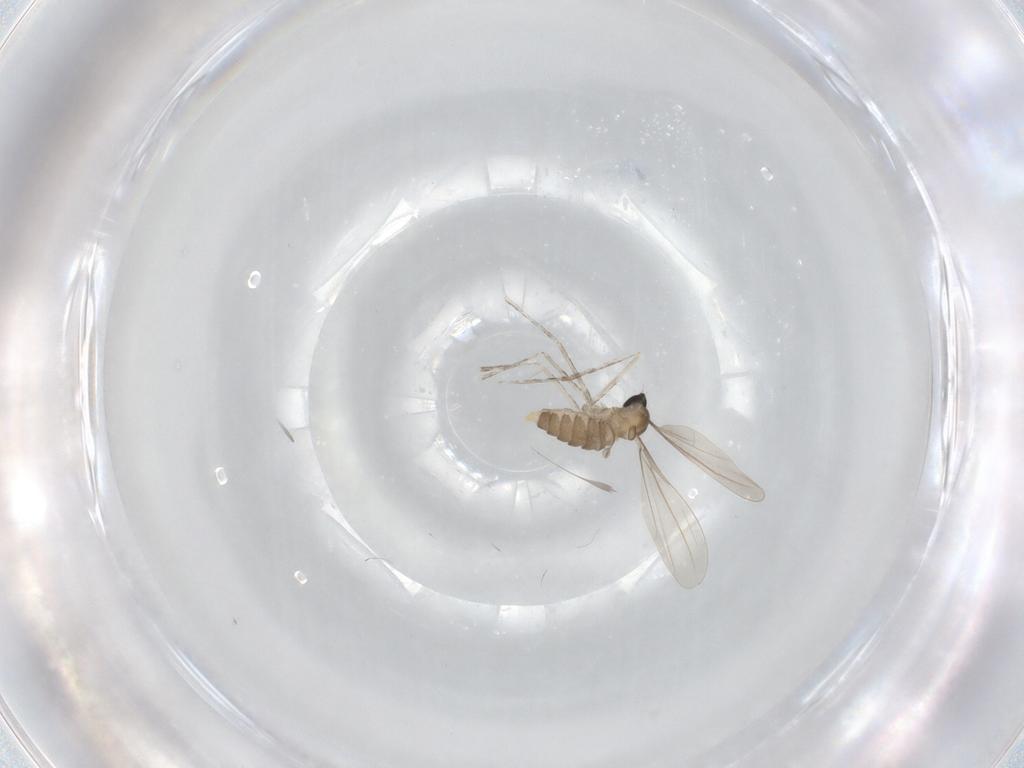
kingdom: Animalia
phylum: Arthropoda
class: Insecta
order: Diptera
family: Cecidomyiidae
